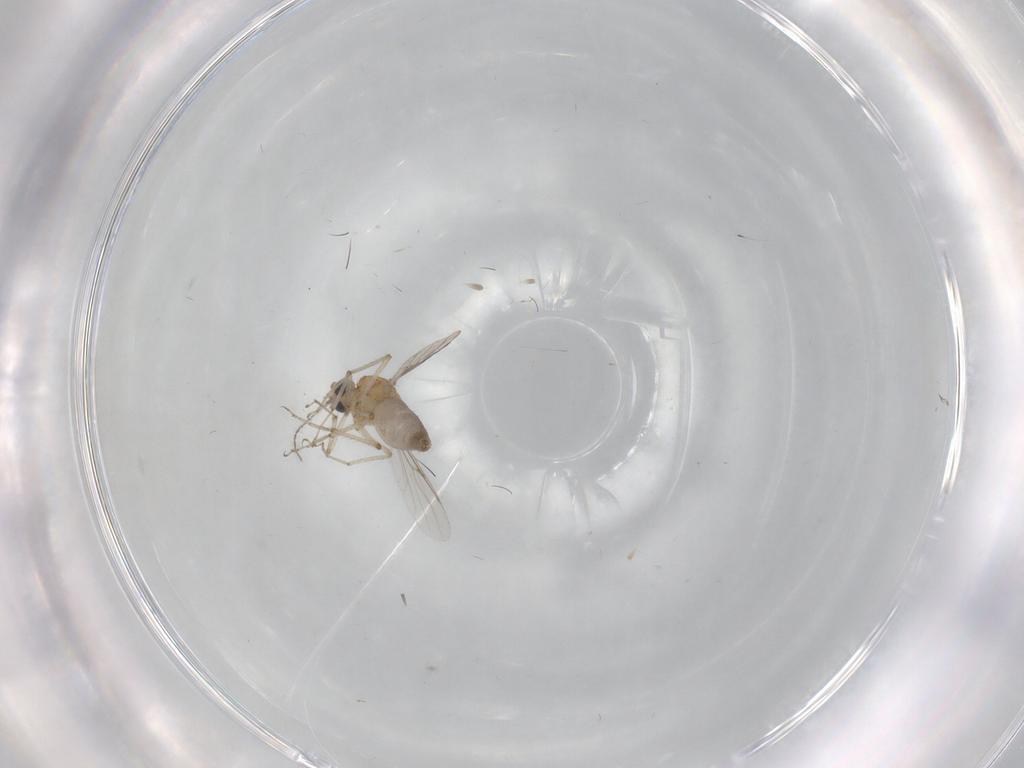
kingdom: Animalia
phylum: Arthropoda
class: Insecta
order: Diptera
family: Ceratopogonidae
